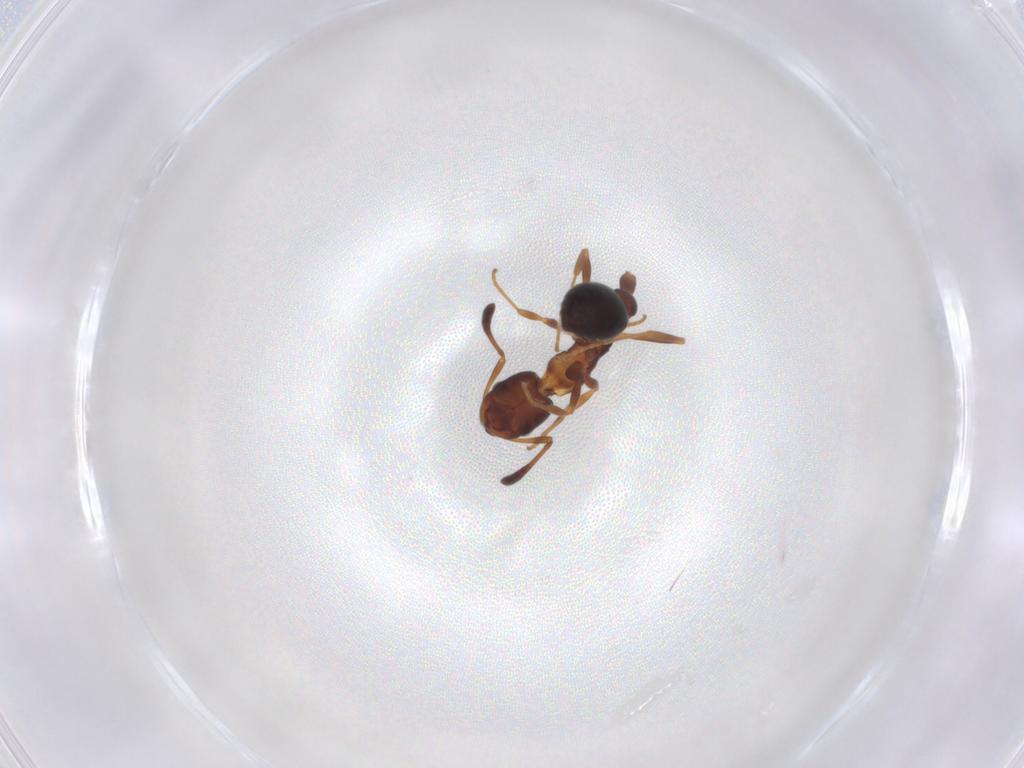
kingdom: Animalia
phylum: Arthropoda
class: Insecta
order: Hymenoptera
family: Formicidae
